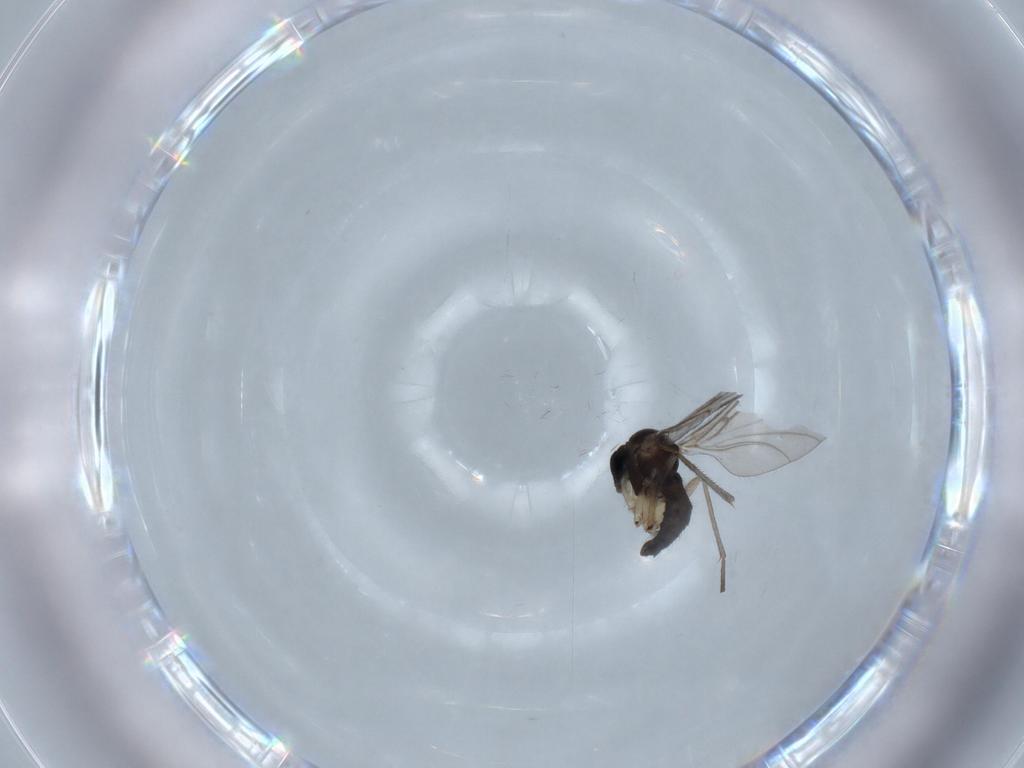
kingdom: Animalia
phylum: Arthropoda
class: Insecta
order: Diptera
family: Sciaridae
